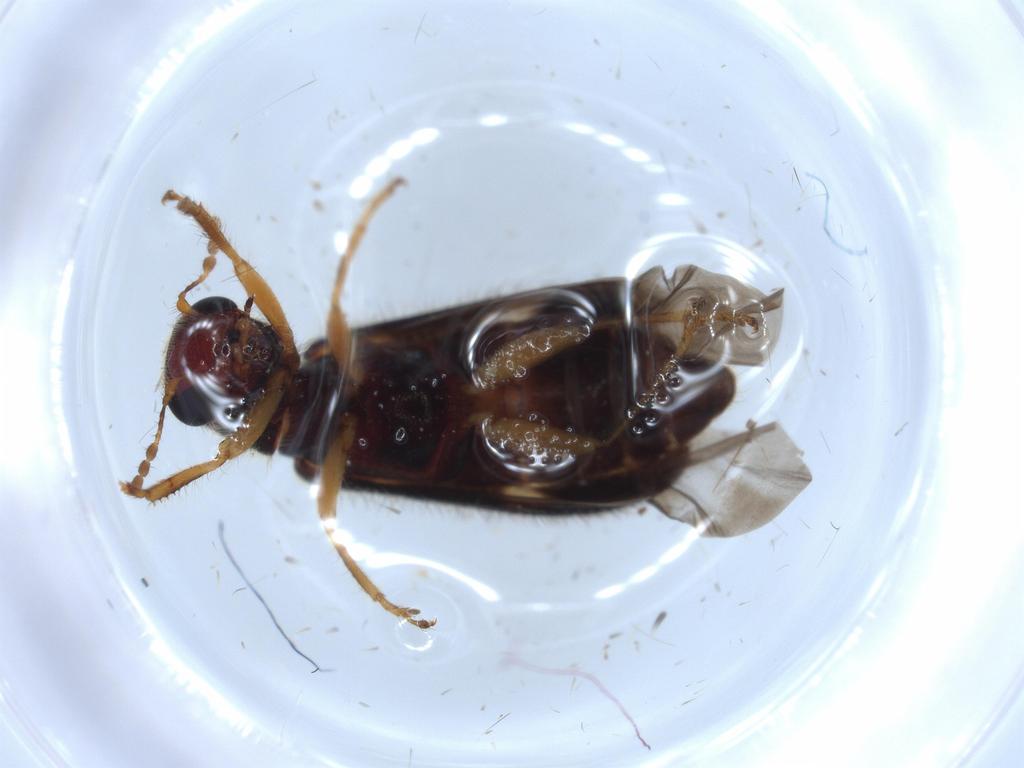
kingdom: Animalia
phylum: Arthropoda
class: Insecta
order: Coleoptera
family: Cleridae
